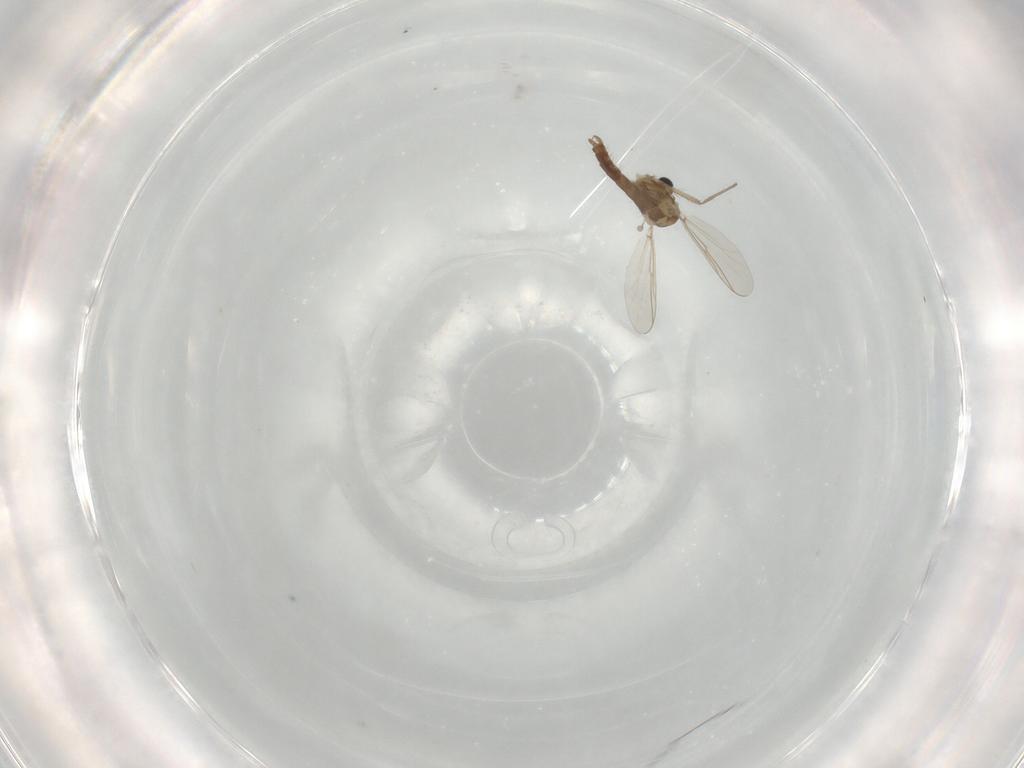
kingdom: Animalia
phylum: Arthropoda
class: Insecta
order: Diptera
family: Chironomidae
